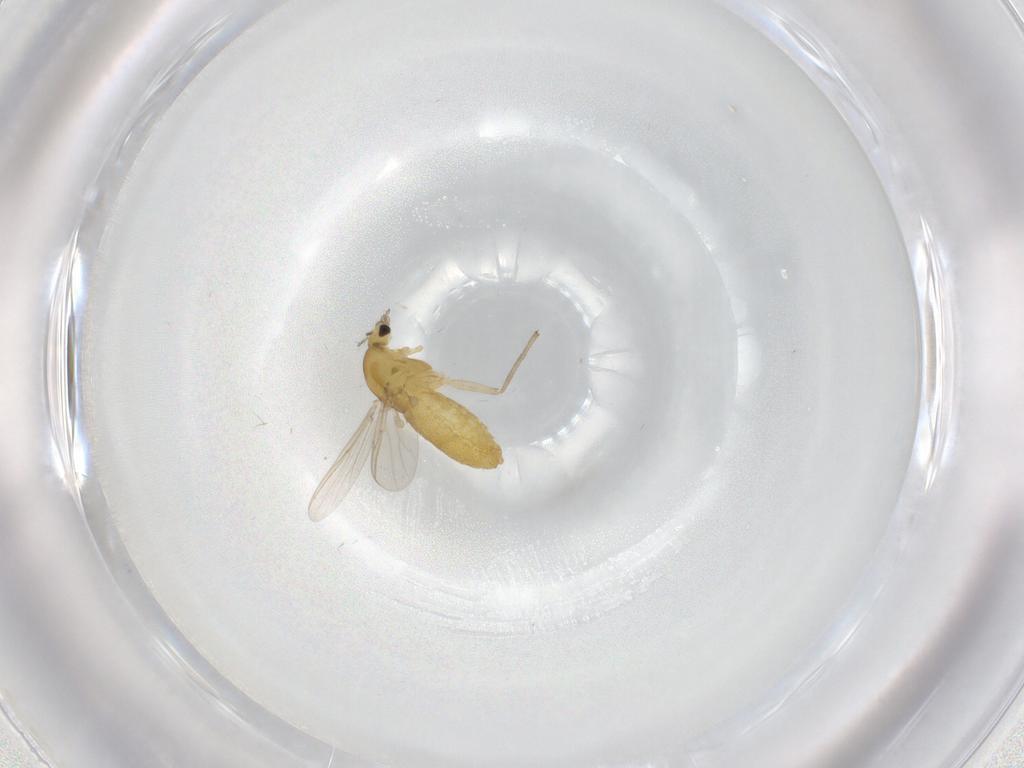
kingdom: Animalia
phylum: Arthropoda
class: Insecta
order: Diptera
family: Chironomidae
